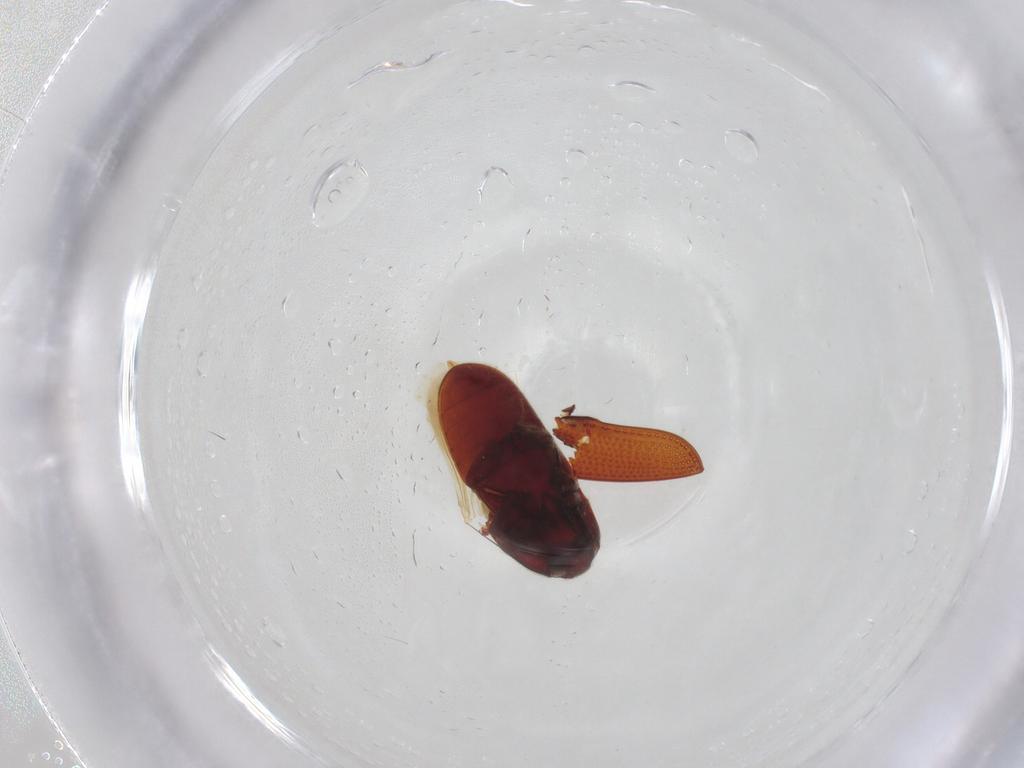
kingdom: Animalia
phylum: Arthropoda
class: Insecta
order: Coleoptera
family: Throscidae
